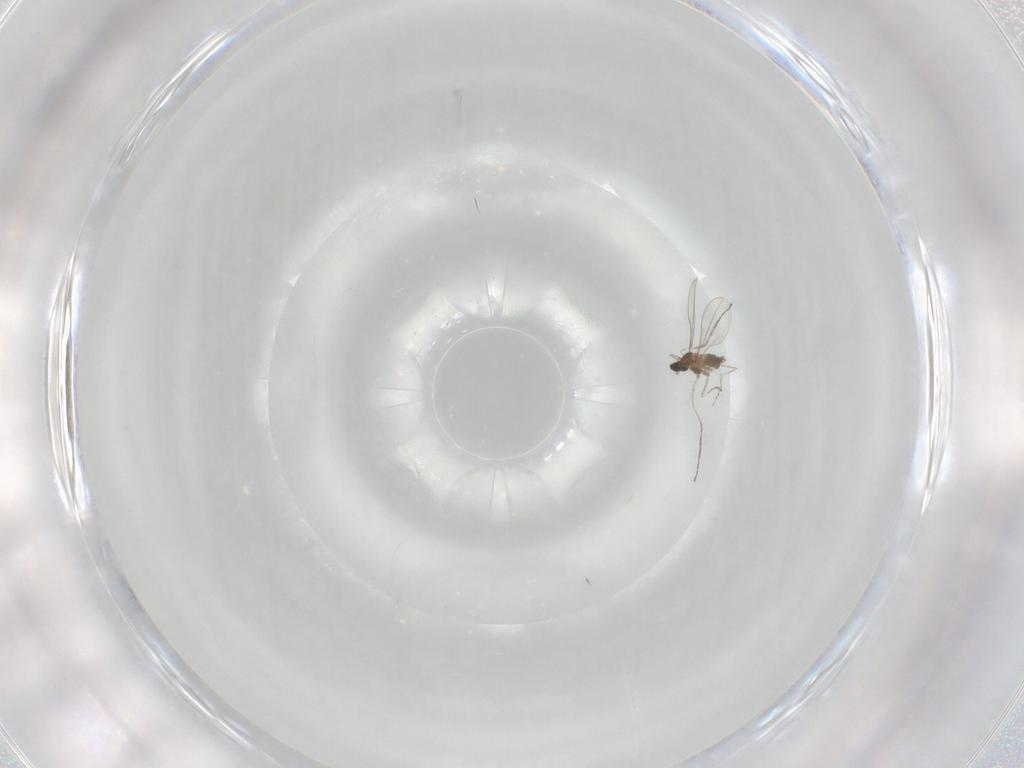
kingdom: Animalia
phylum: Arthropoda
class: Insecta
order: Diptera
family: Cecidomyiidae
